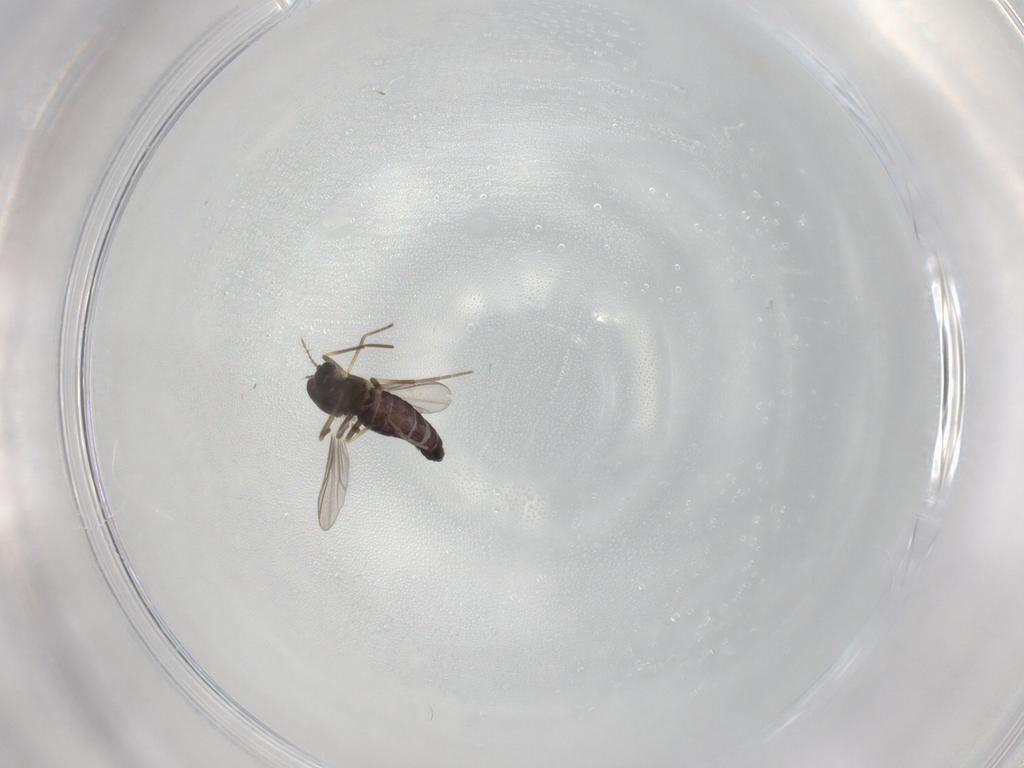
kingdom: Animalia
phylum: Arthropoda
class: Insecta
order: Diptera
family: Chironomidae
